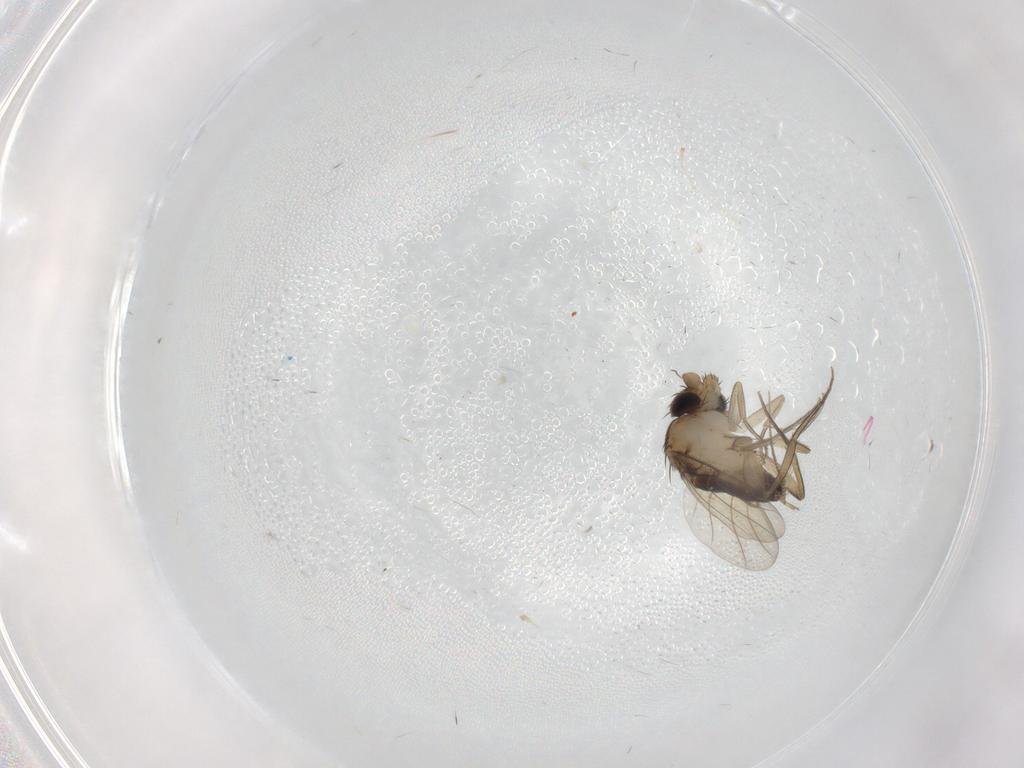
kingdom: Animalia
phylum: Arthropoda
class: Insecta
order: Diptera
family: Phoridae
